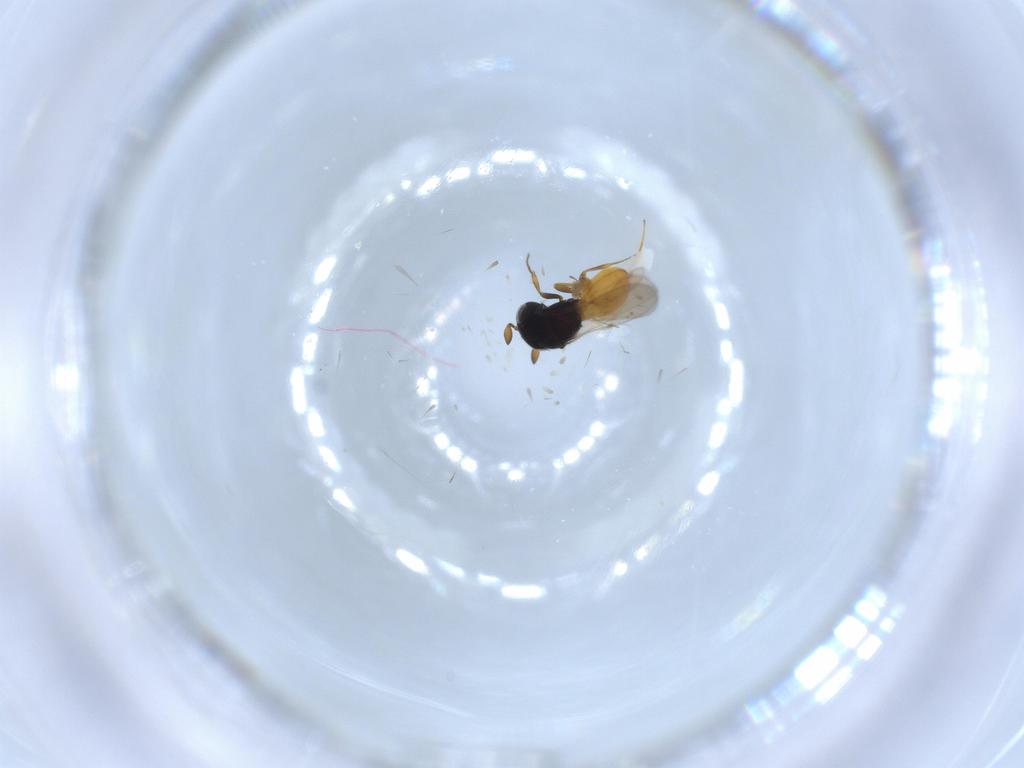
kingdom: Animalia
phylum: Arthropoda
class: Insecta
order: Hymenoptera
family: Scelionidae
